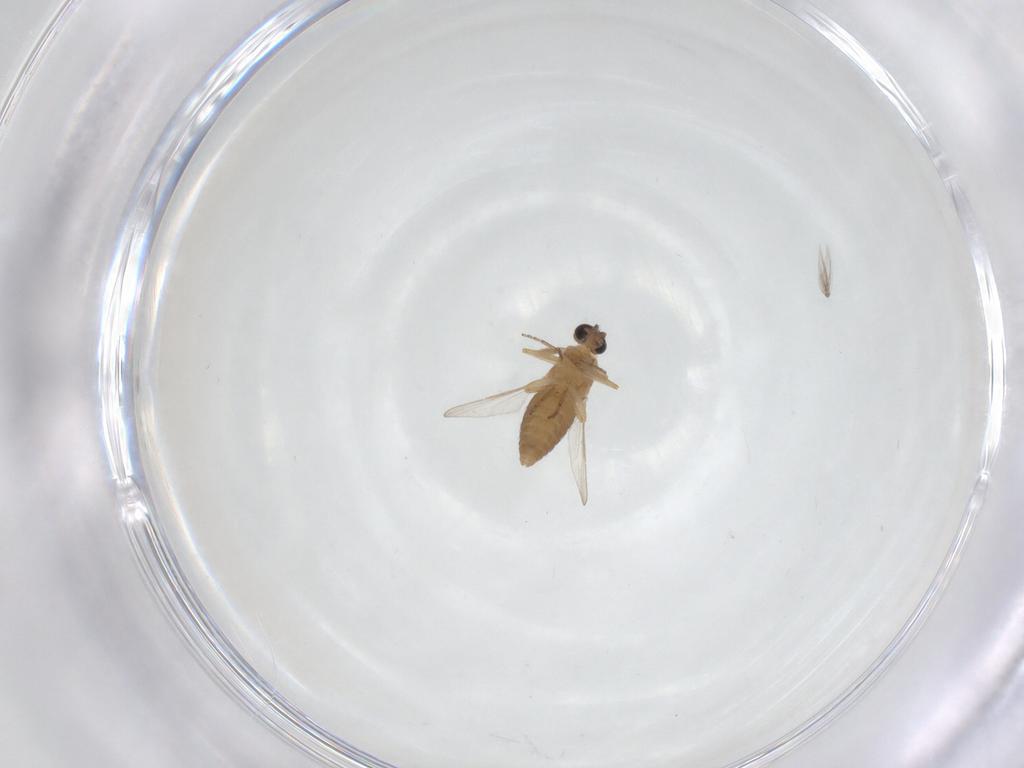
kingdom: Animalia
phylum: Arthropoda
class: Insecta
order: Diptera
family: Ceratopogonidae
